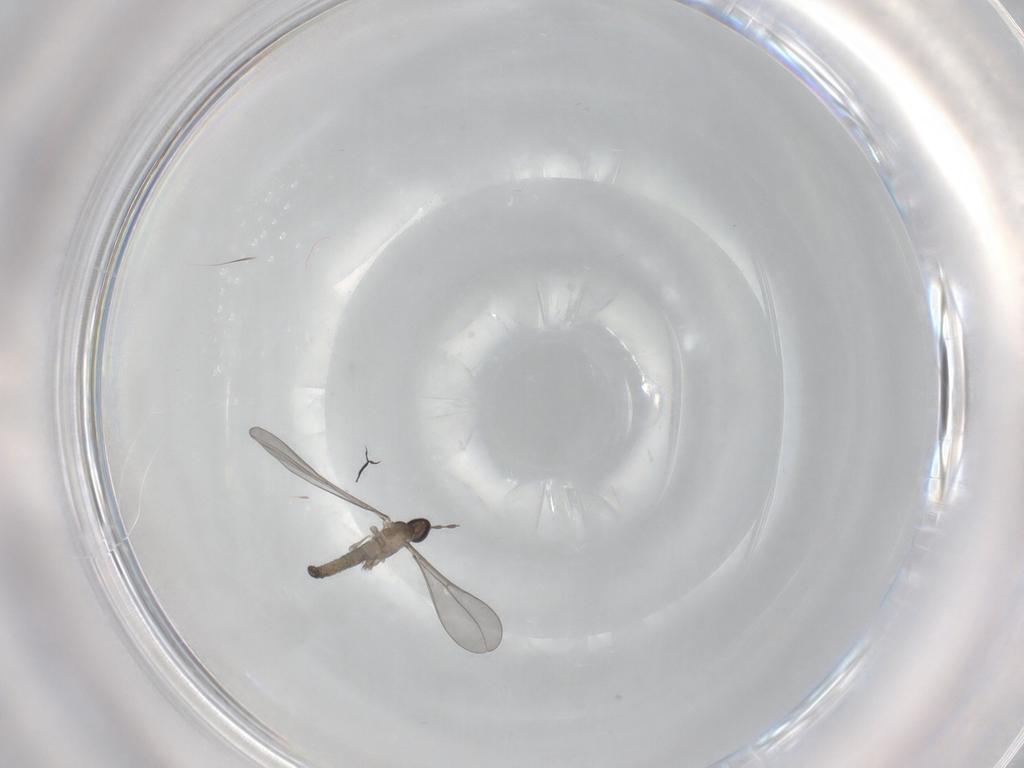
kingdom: Animalia
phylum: Arthropoda
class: Insecta
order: Diptera
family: Cecidomyiidae
